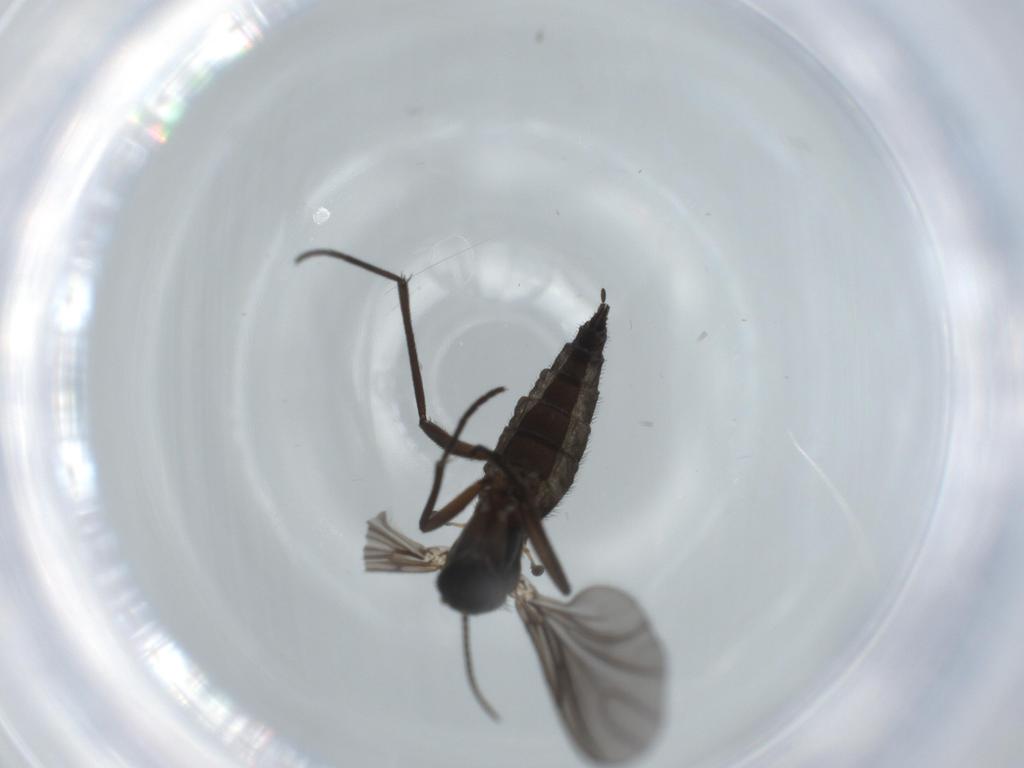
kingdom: Animalia
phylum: Arthropoda
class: Insecta
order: Diptera
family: Sciaridae
